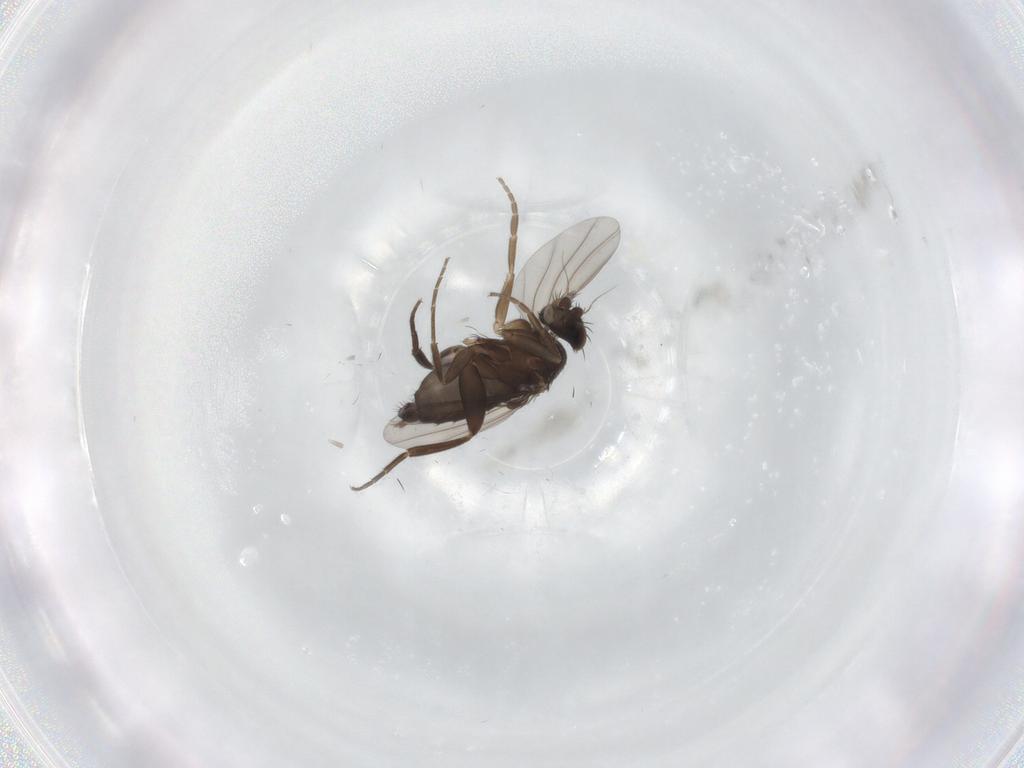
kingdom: Animalia
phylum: Arthropoda
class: Insecta
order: Diptera
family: Phoridae
